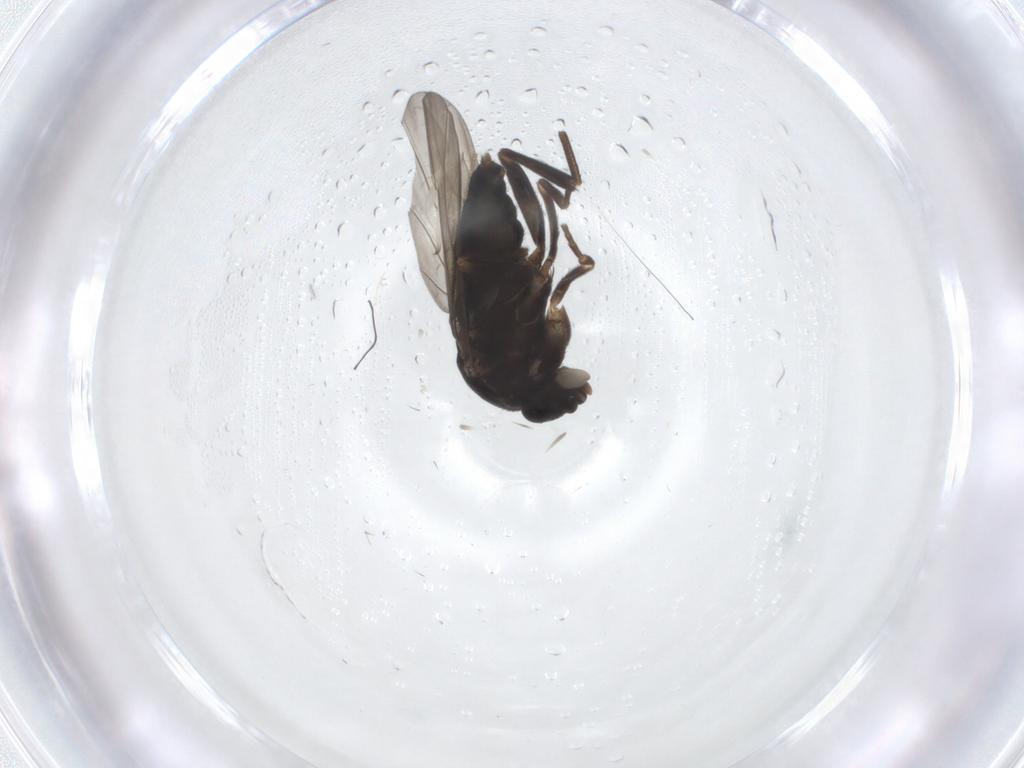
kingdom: Animalia
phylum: Arthropoda
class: Insecta
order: Diptera
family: Phoridae
